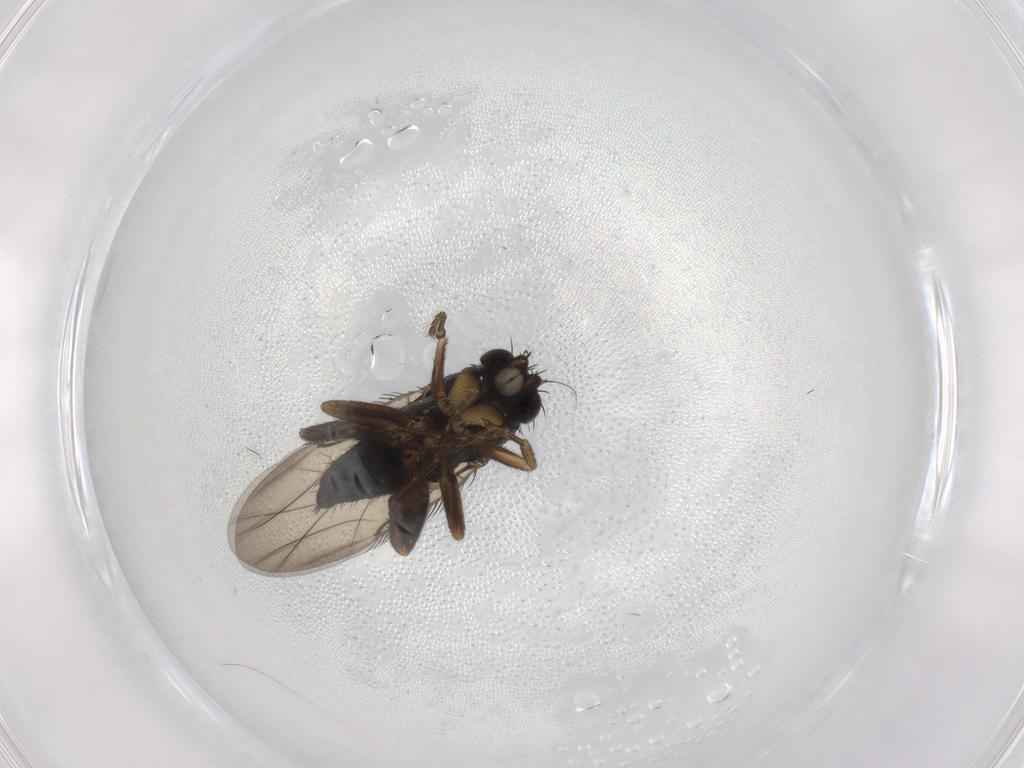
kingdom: Animalia
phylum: Arthropoda
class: Insecta
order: Diptera
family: Phoridae
